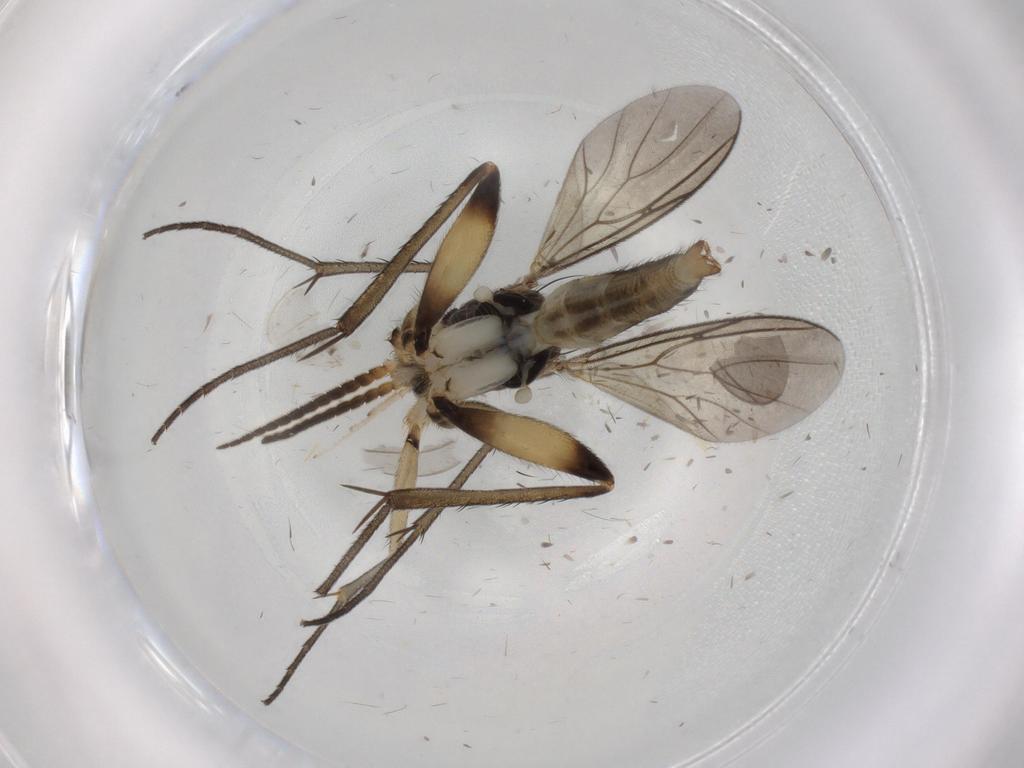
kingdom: Animalia
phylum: Arthropoda
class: Insecta
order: Diptera
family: Phoridae
